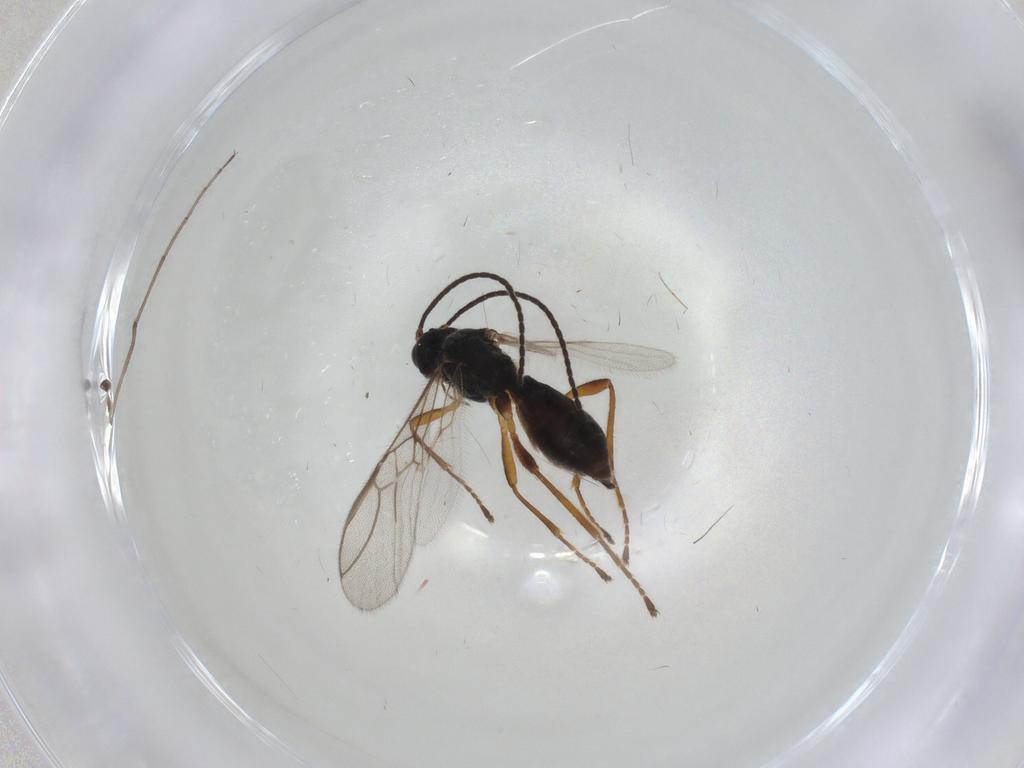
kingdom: Animalia
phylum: Arthropoda
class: Insecta
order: Hymenoptera
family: Braconidae
